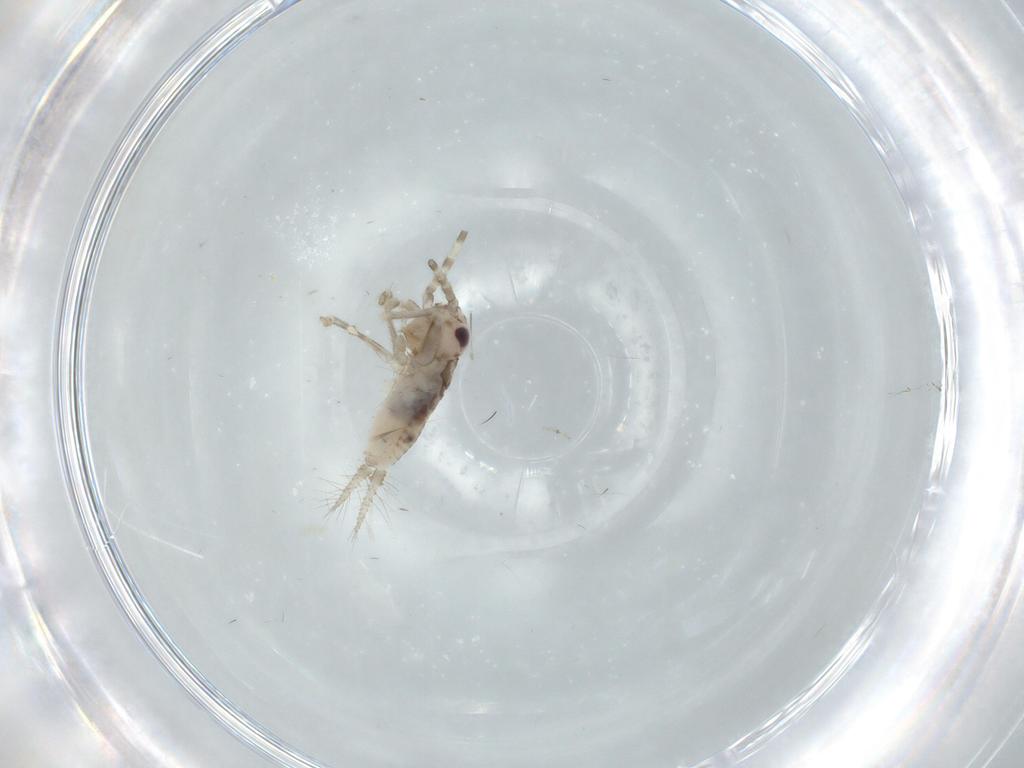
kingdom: Animalia
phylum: Arthropoda
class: Insecta
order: Orthoptera
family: Trigonidiidae
